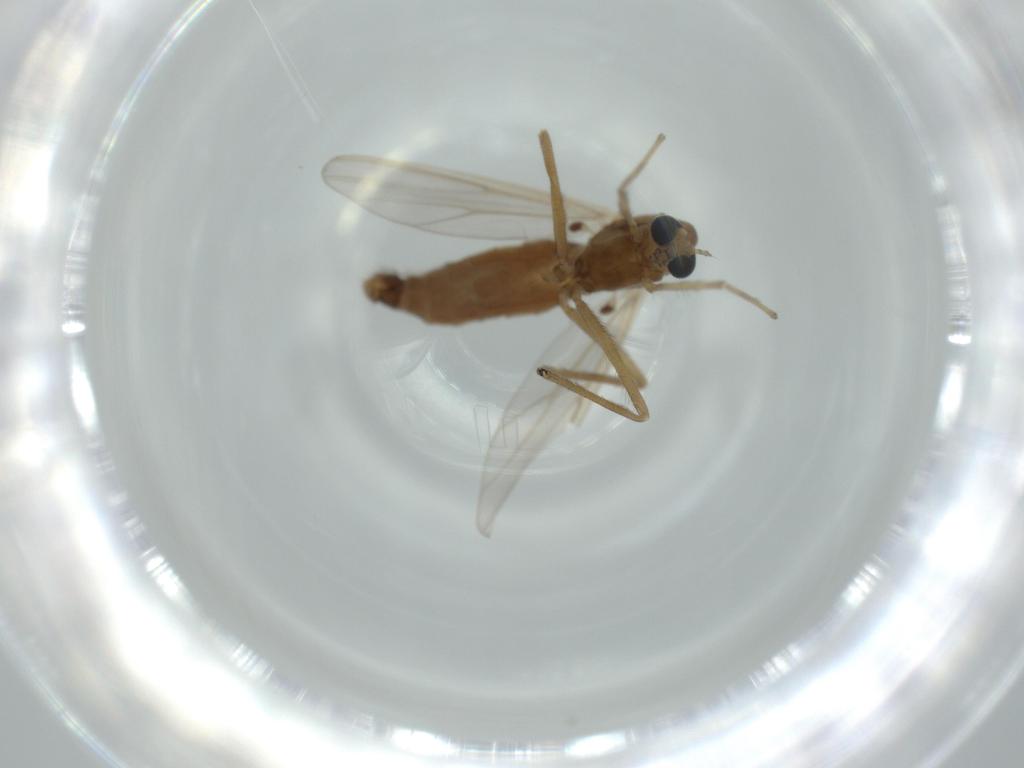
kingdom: Animalia
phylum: Arthropoda
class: Insecta
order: Diptera
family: Chironomidae
